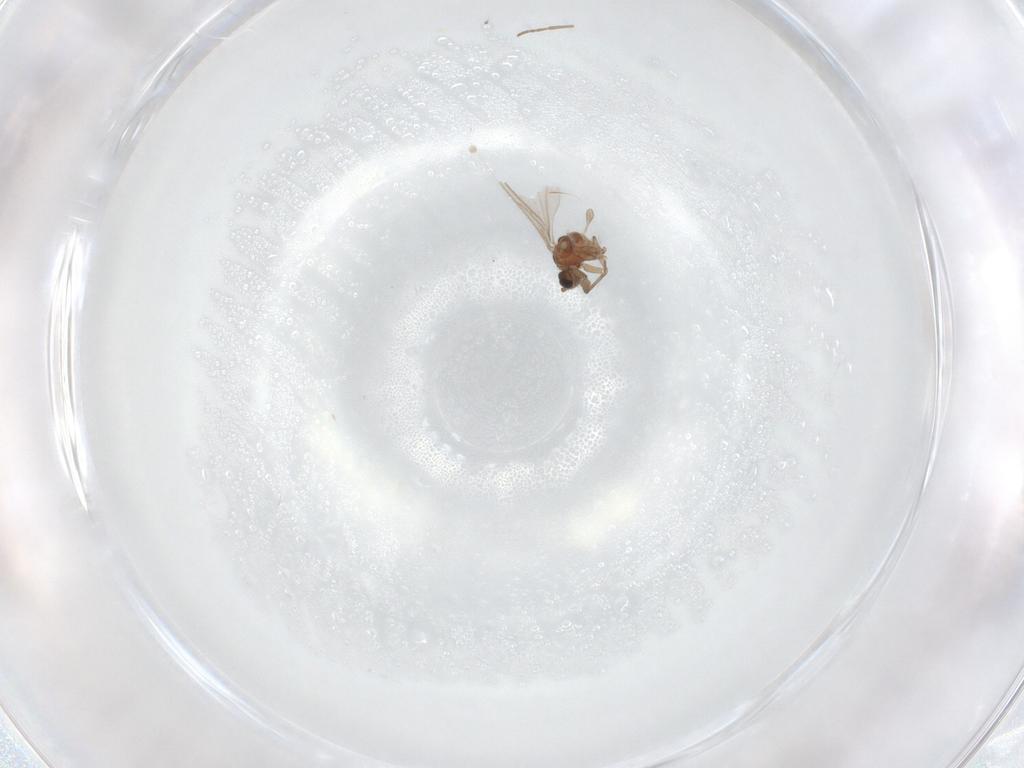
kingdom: Animalia
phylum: Arthropoda
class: Insecta
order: Diptera
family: Sciaridae
